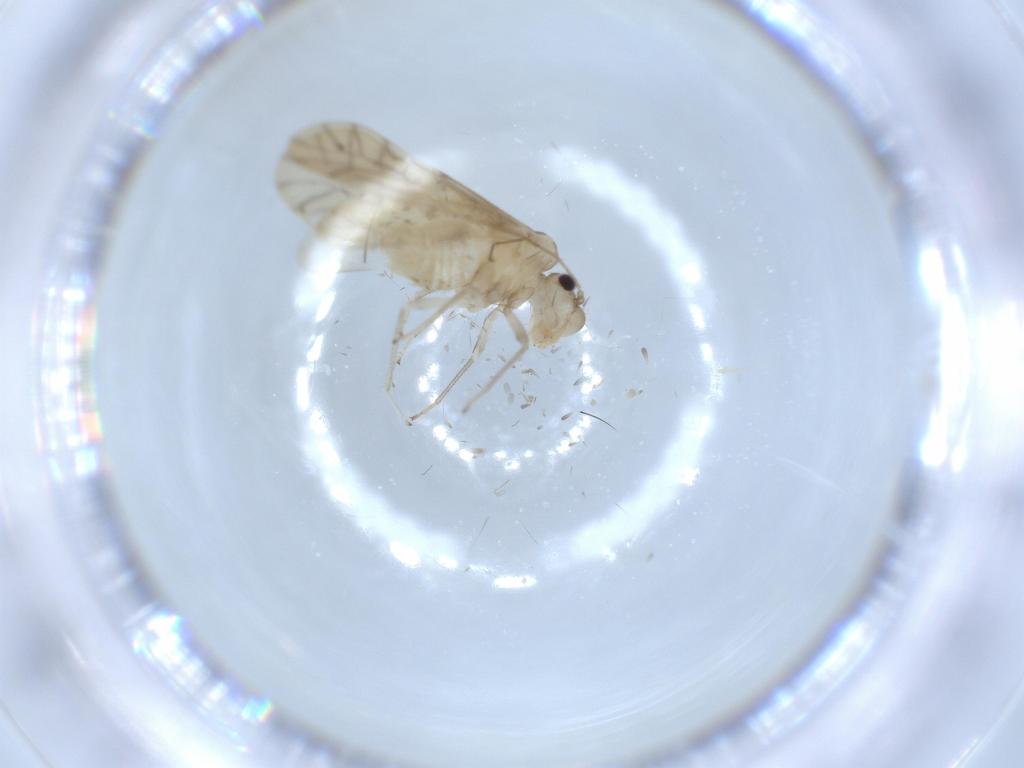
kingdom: Animalia
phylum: Arthropoda
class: Insecta
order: Psocodea
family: Caeciliusidae
